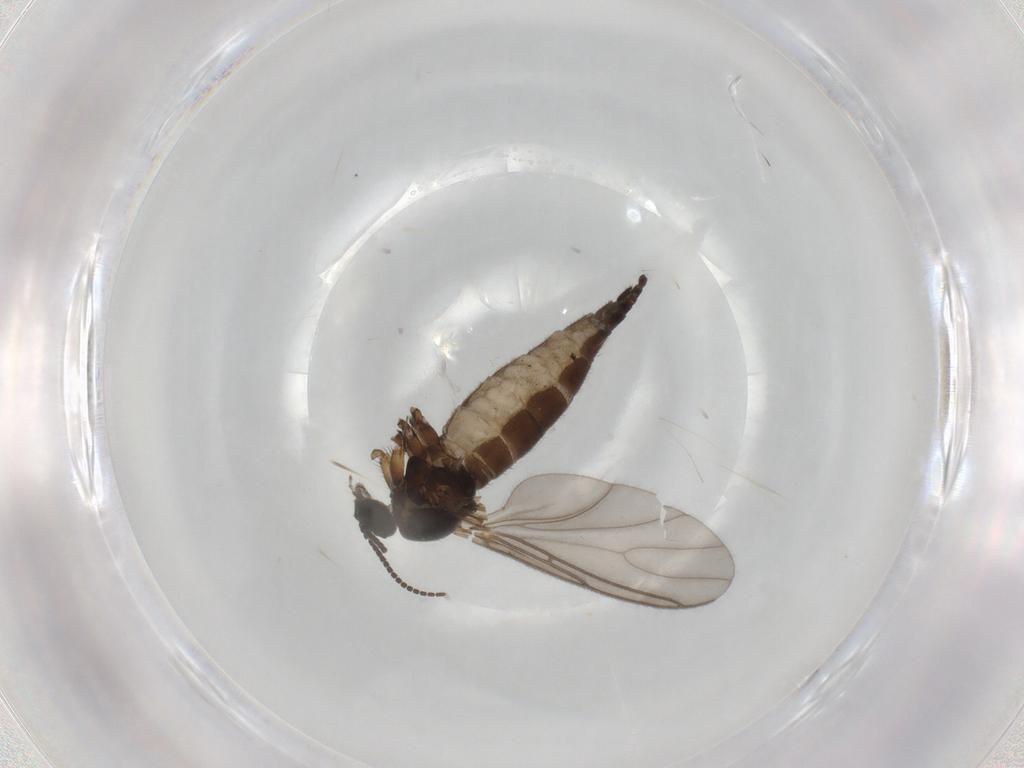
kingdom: Animalia
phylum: Arthropoda
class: Insecta
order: Diptera
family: Sciaridae
